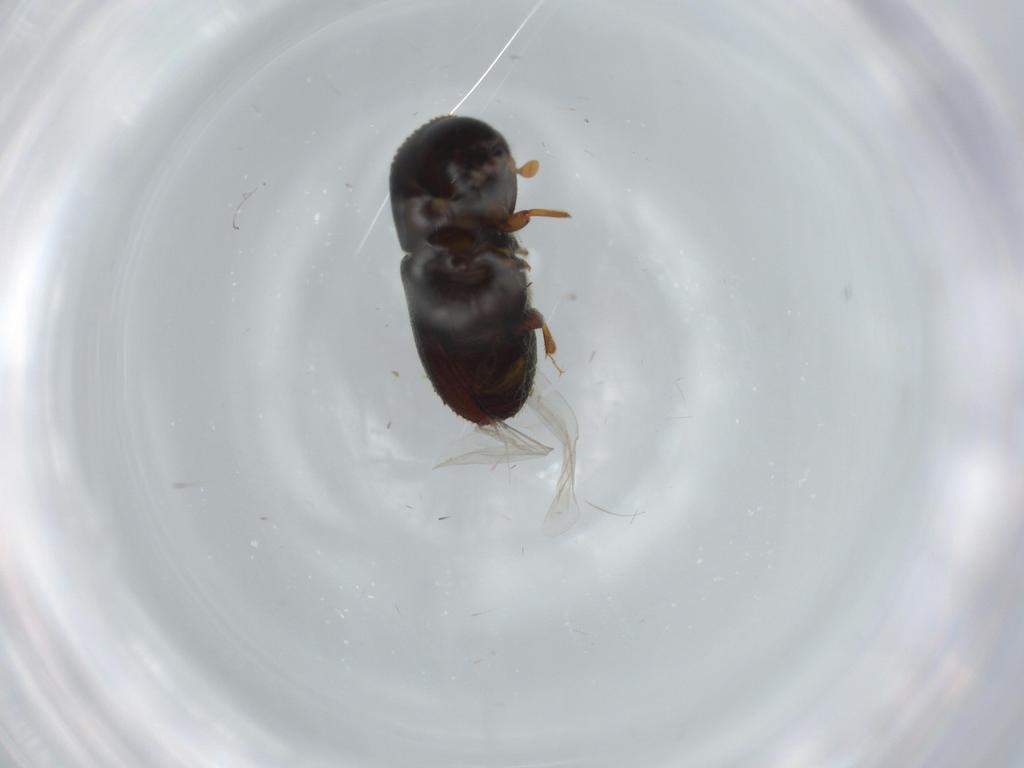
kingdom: Animalia
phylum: Arthropoda
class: Insecta
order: Coleoptera
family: Curculionidae
